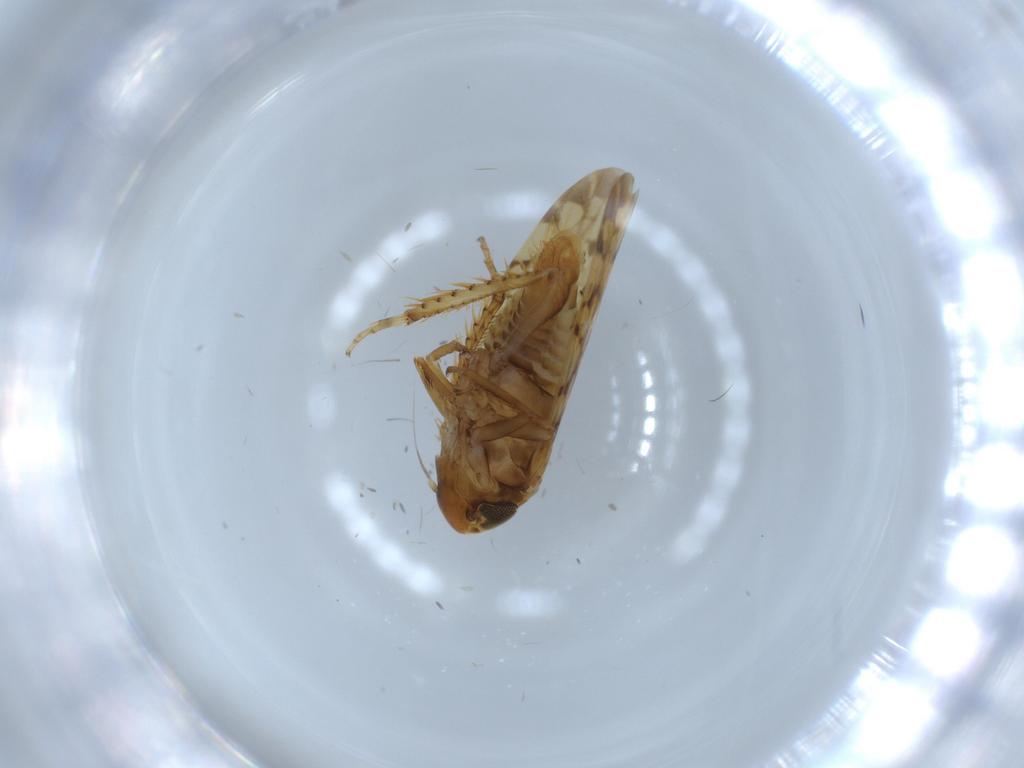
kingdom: Animalia
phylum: Arthropoda
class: Insecta
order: Hemiptera
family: Cicadellidae
